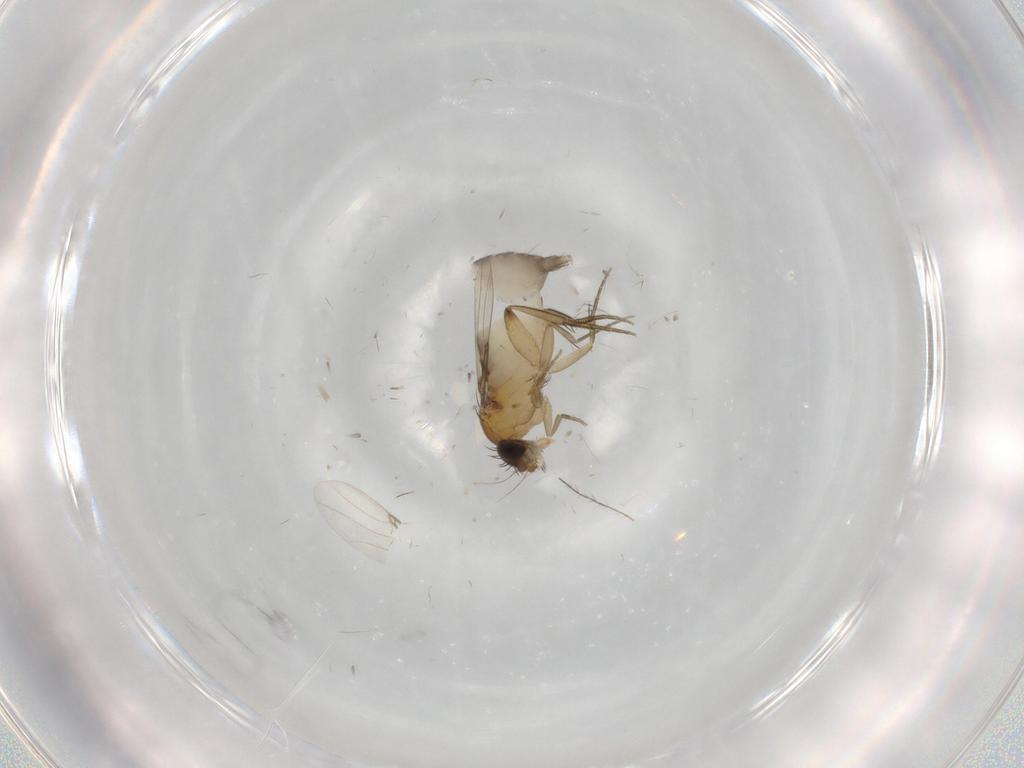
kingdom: Animalia
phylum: Arthropoda
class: Insecta
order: Diptera
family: Phoridae
